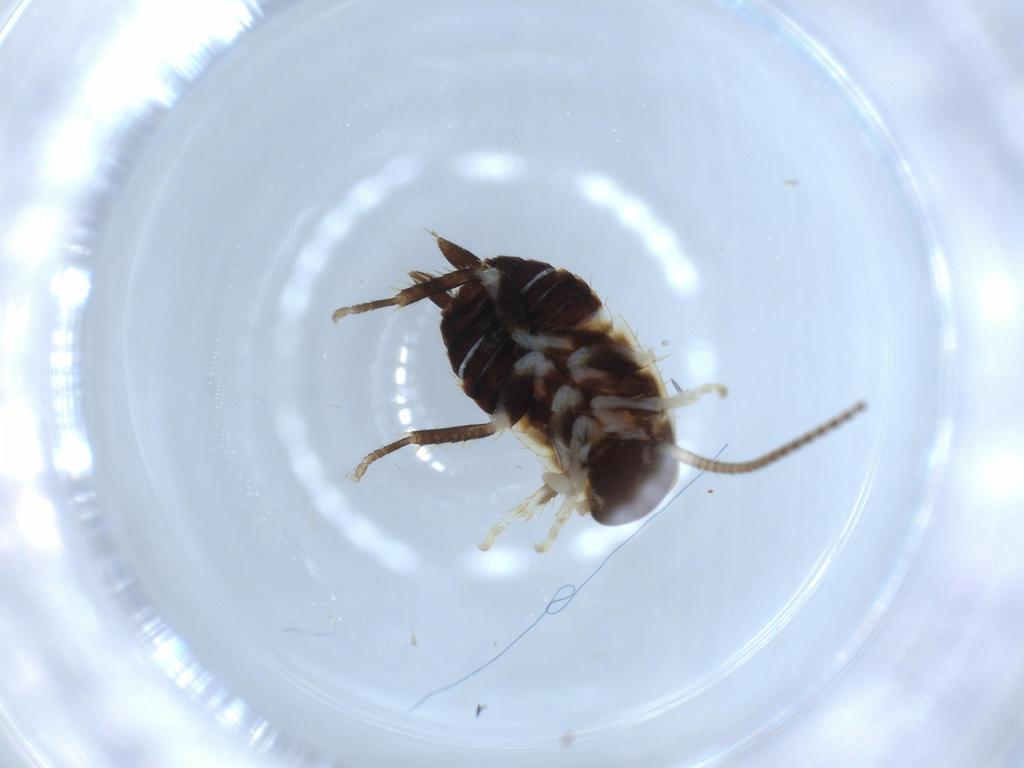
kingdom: Animalia
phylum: Arthropoda
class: Insecta
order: Blattodea
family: Ectobiidae
